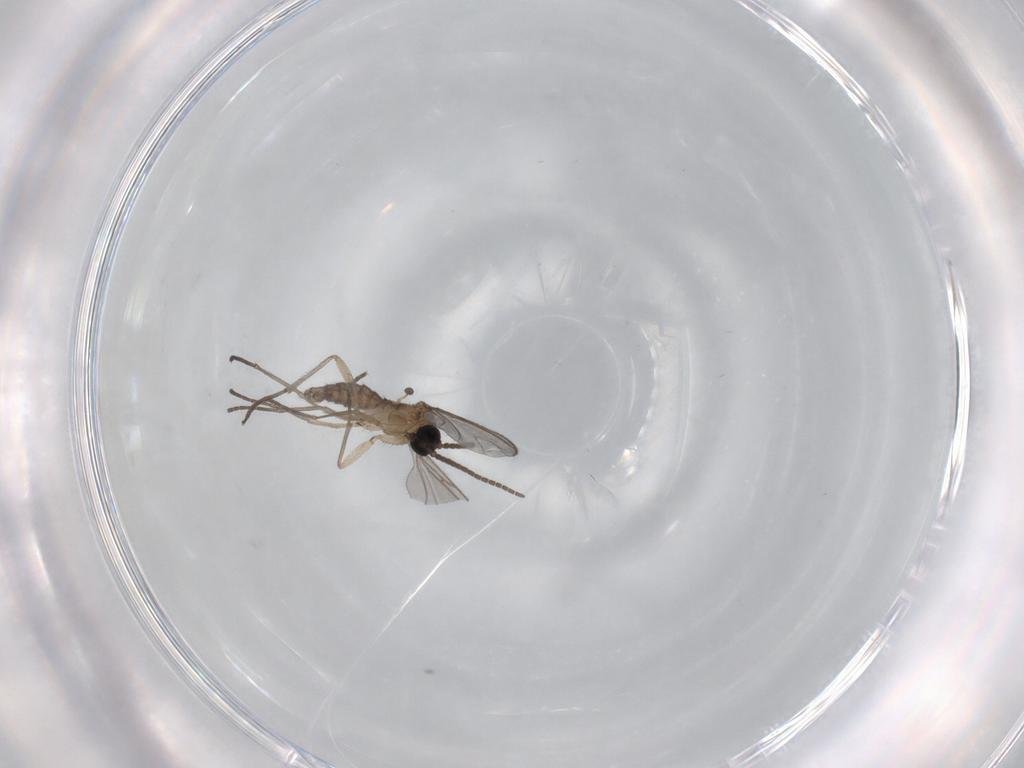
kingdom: Animalia
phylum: Arthropoda
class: Insecta
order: Diptera
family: Sciaridae
